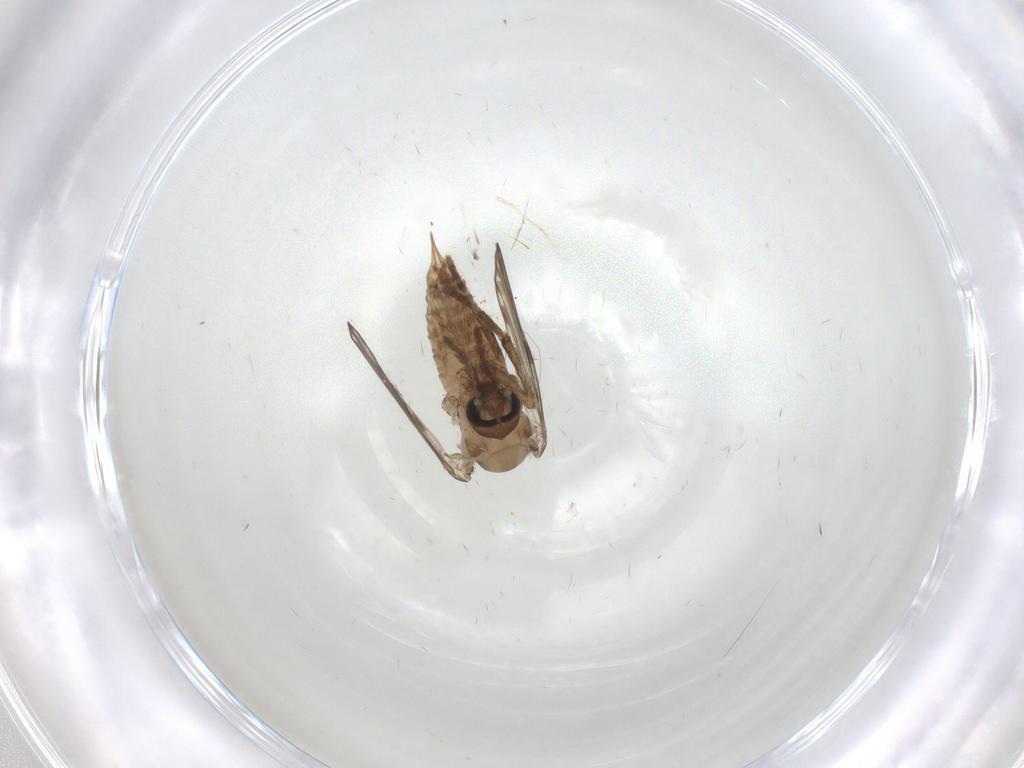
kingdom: Animalia
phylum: Arthropoda
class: Insecta
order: Diptera
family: Psychodidae
